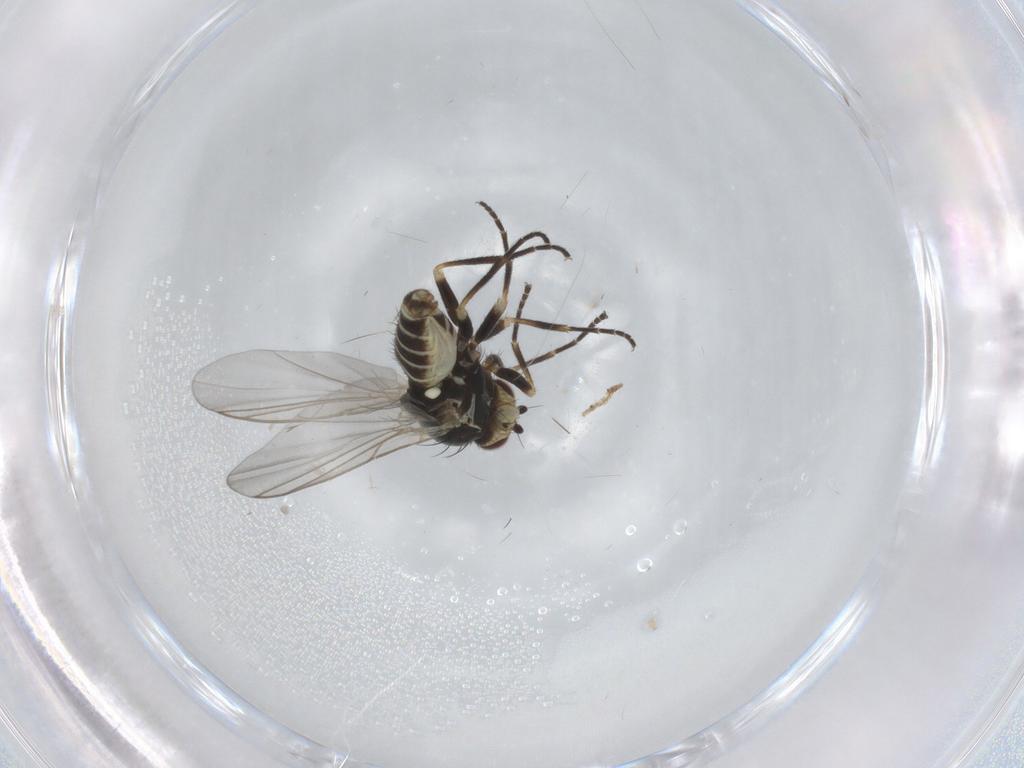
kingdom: Animalia
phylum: Arthropoda
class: Insecta
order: Diptera
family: Agromyzidae
